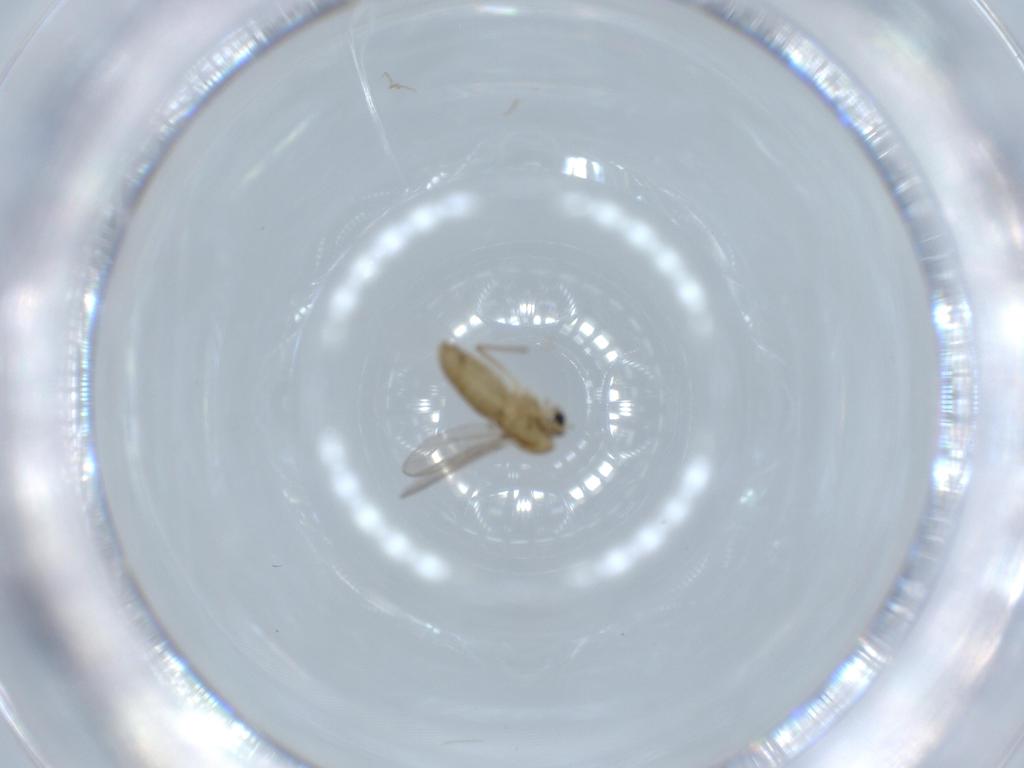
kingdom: Animalia
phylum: Arthropoda
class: Insecta
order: Diptera
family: Chironomidae
